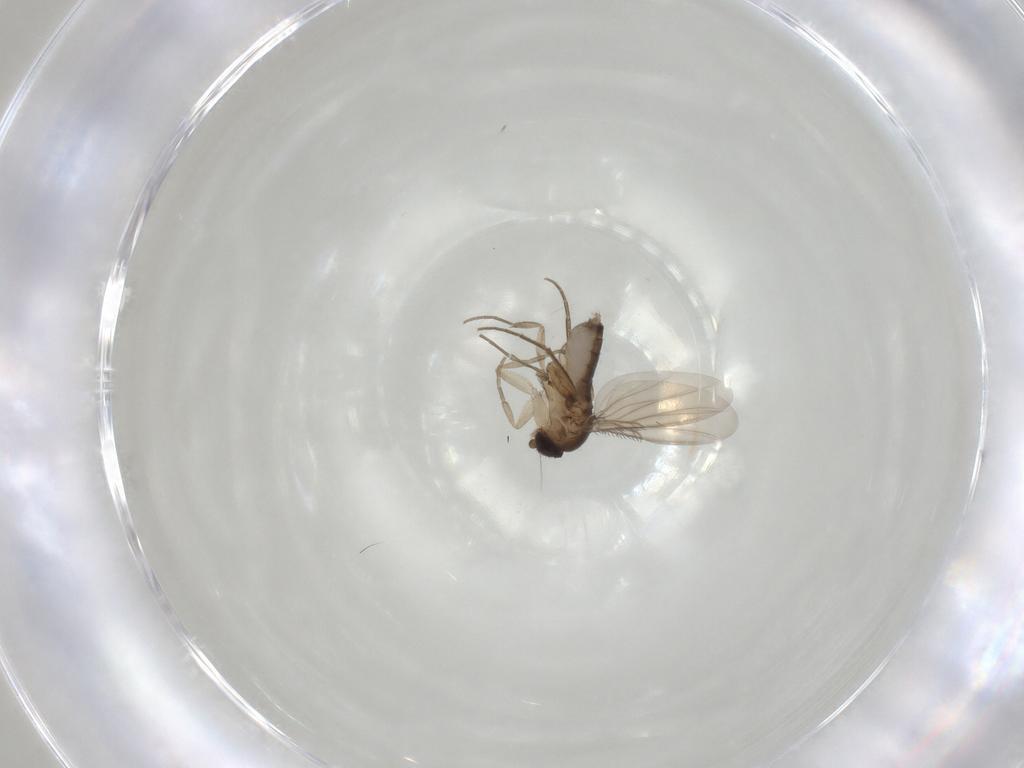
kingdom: Animalia
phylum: Arthropoda
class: Insecta
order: Diptera
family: Phoridae
